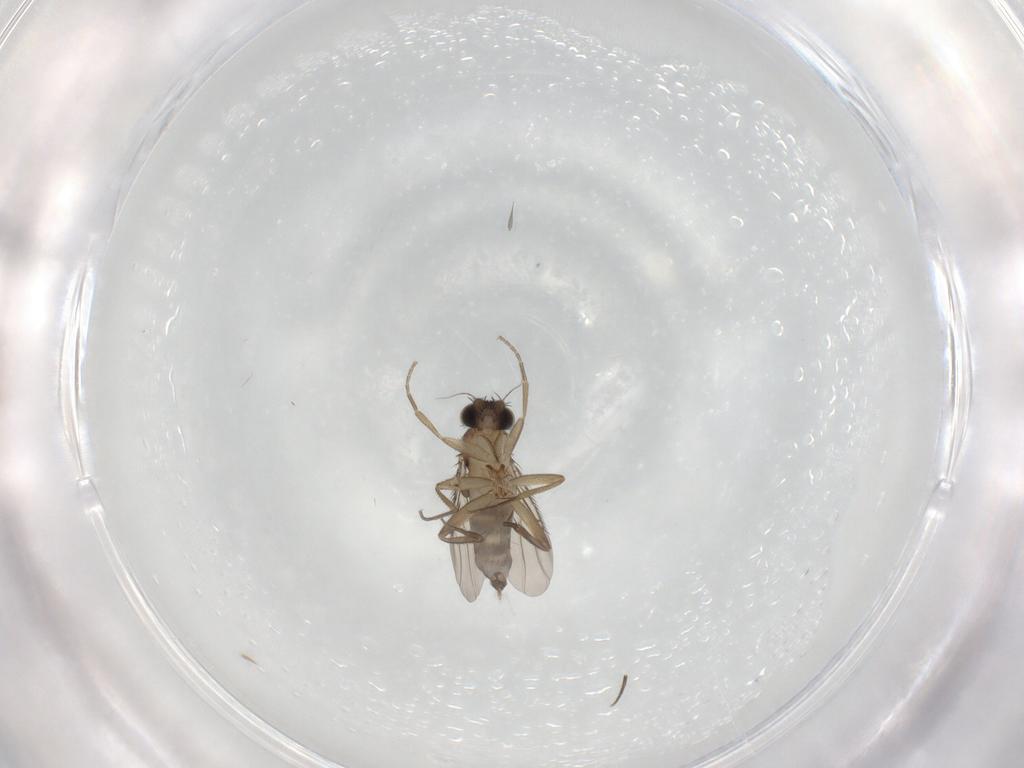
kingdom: Animalia
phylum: Arthropoda
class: Insecta
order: Diptera
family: Phoridae
